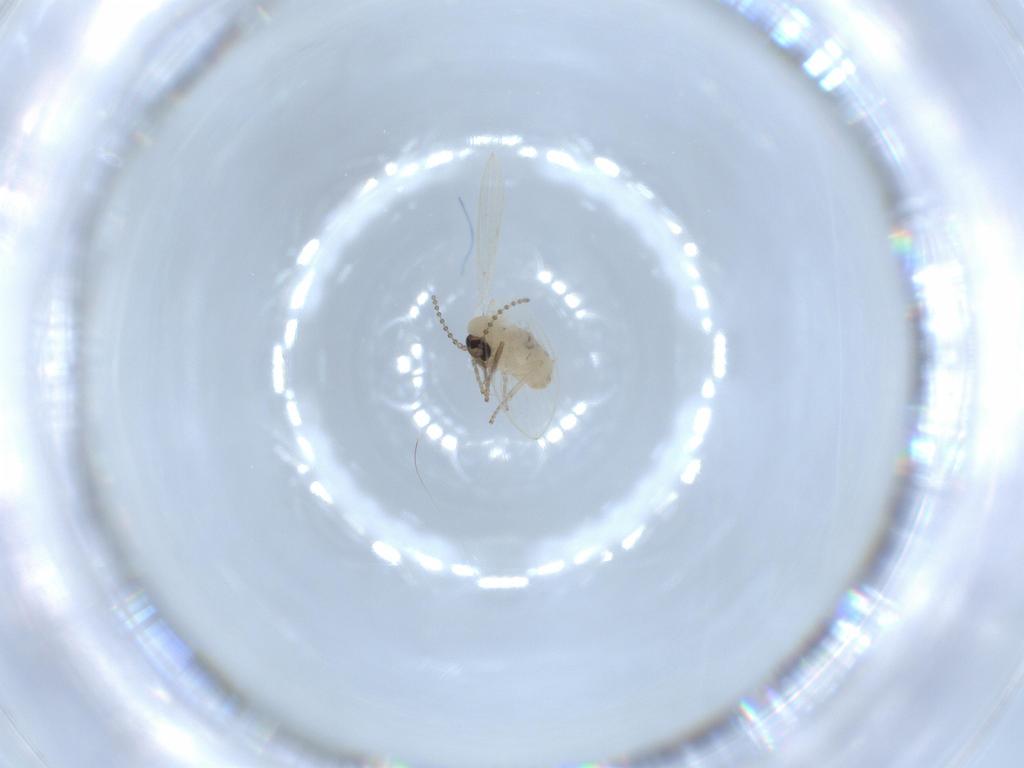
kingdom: Animalia
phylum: Arthropoda
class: Insecta
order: Diptera
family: Psychodidae
